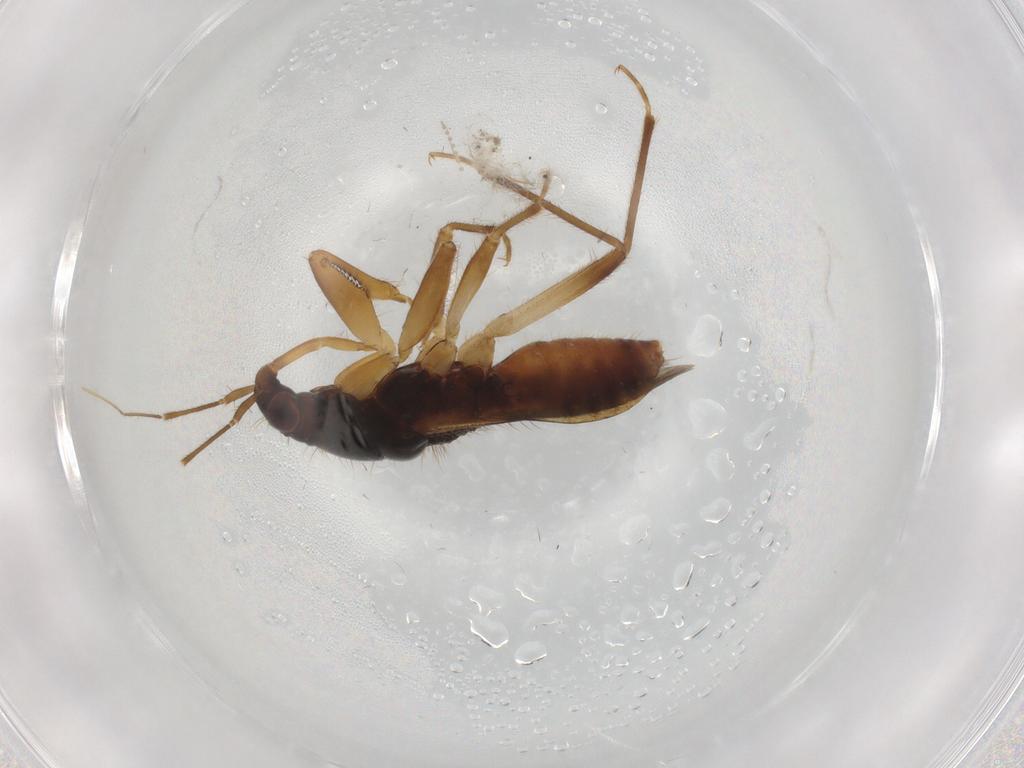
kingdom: Animalia
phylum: Arthropoda
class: Insecta
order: Hemiptera
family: Nabidae
